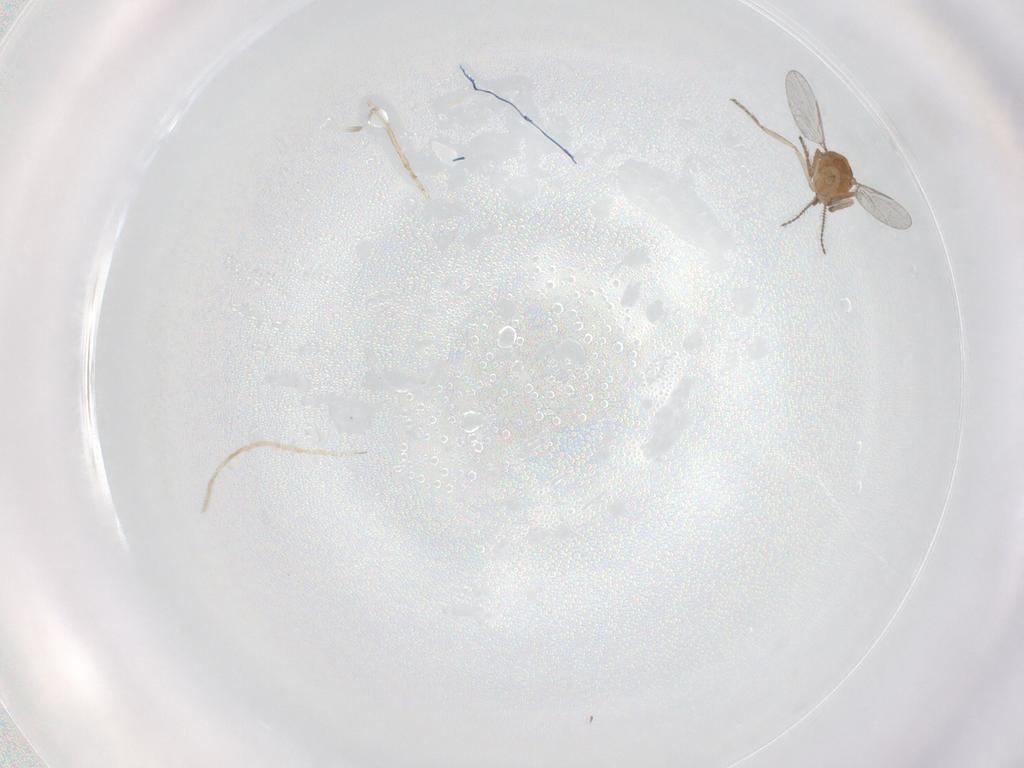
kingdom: Animalia
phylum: Arthropoda
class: Insecta
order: Diptera
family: Ceratopogonidae
